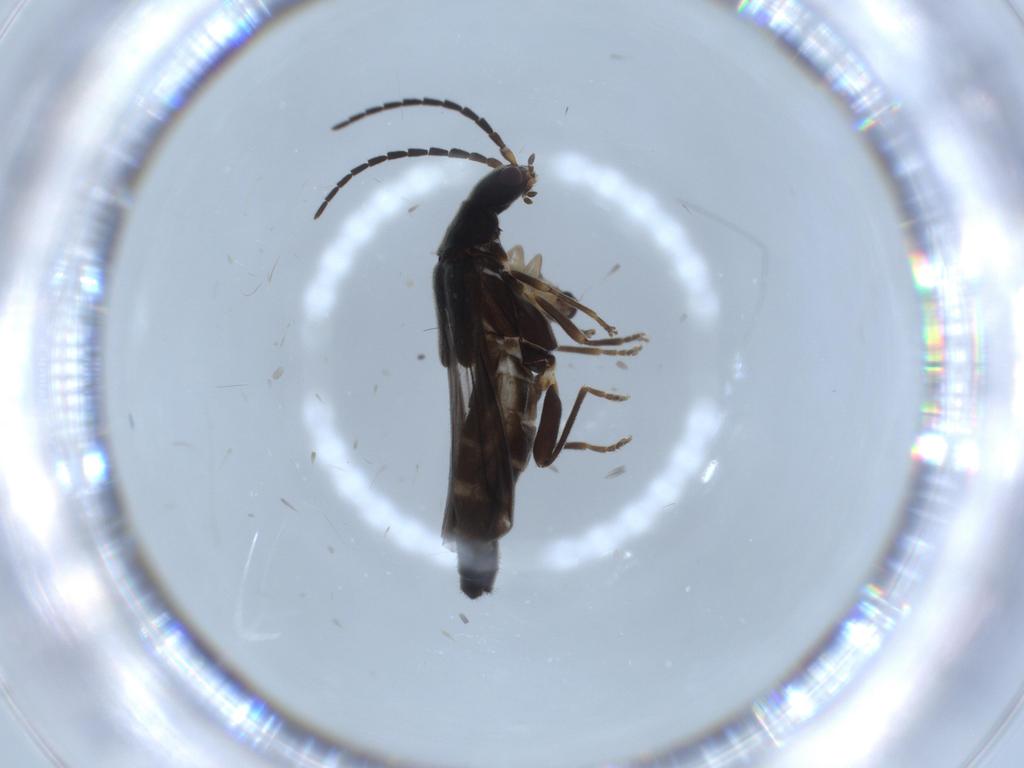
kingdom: Animalia
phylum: Arthropoda
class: Insecta
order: Coleoptera
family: Cantharidae
